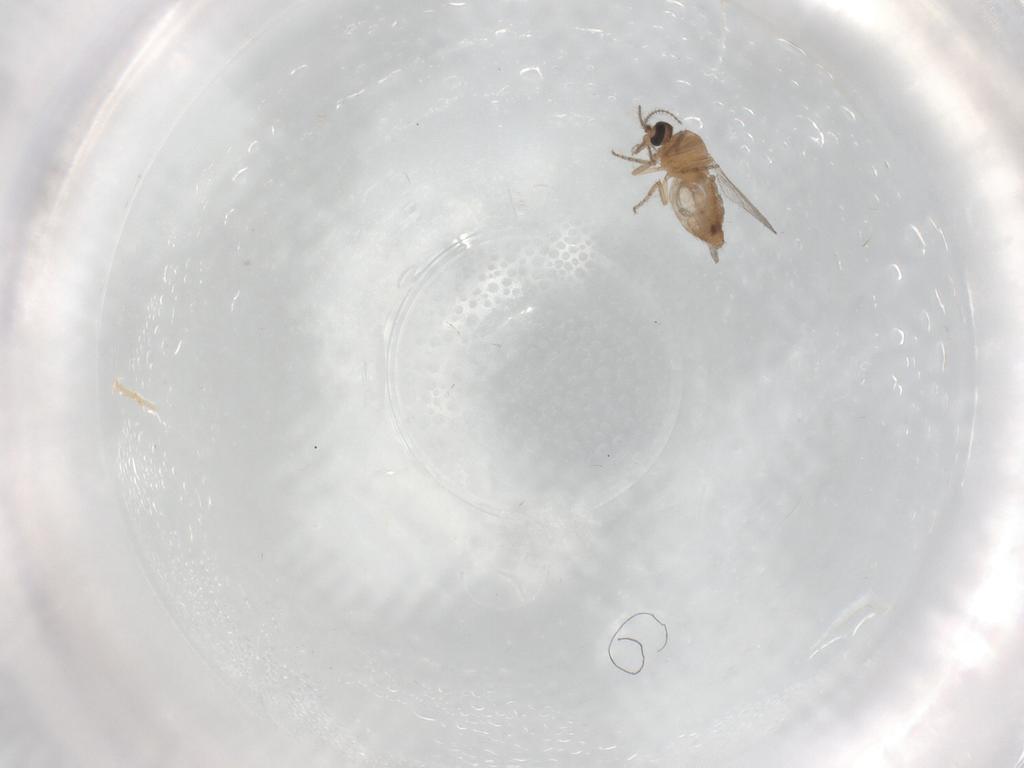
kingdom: Animalia
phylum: Arthropoda
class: Insecta
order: Diptera
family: Ceratopogonidae
